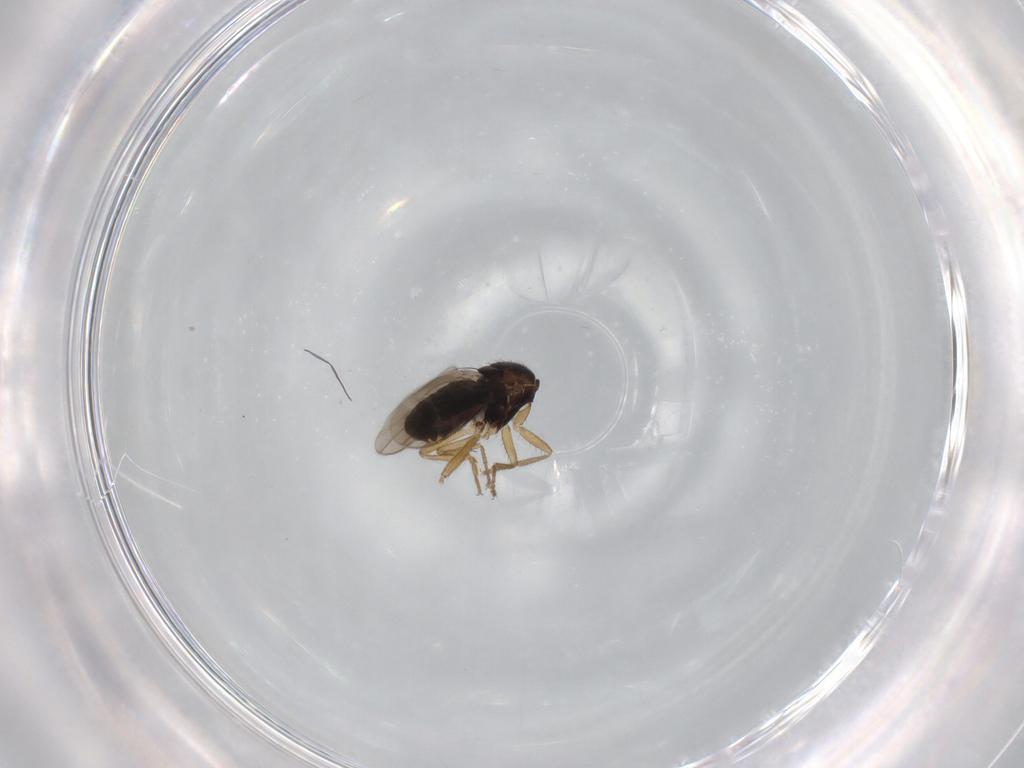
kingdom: Animalia
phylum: Arthropoda
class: Insecta
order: Diptera
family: Sphaeroceridae
